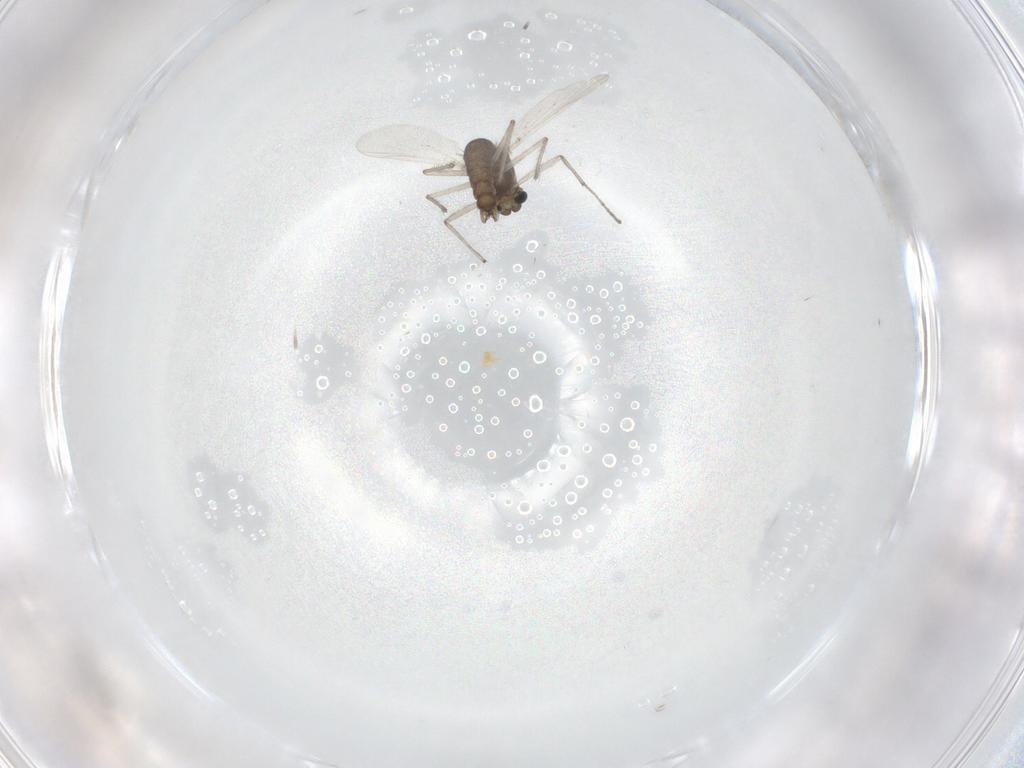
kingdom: Animalia
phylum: Arthropoda
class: Insecta
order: Diptera
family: Chironomidae
